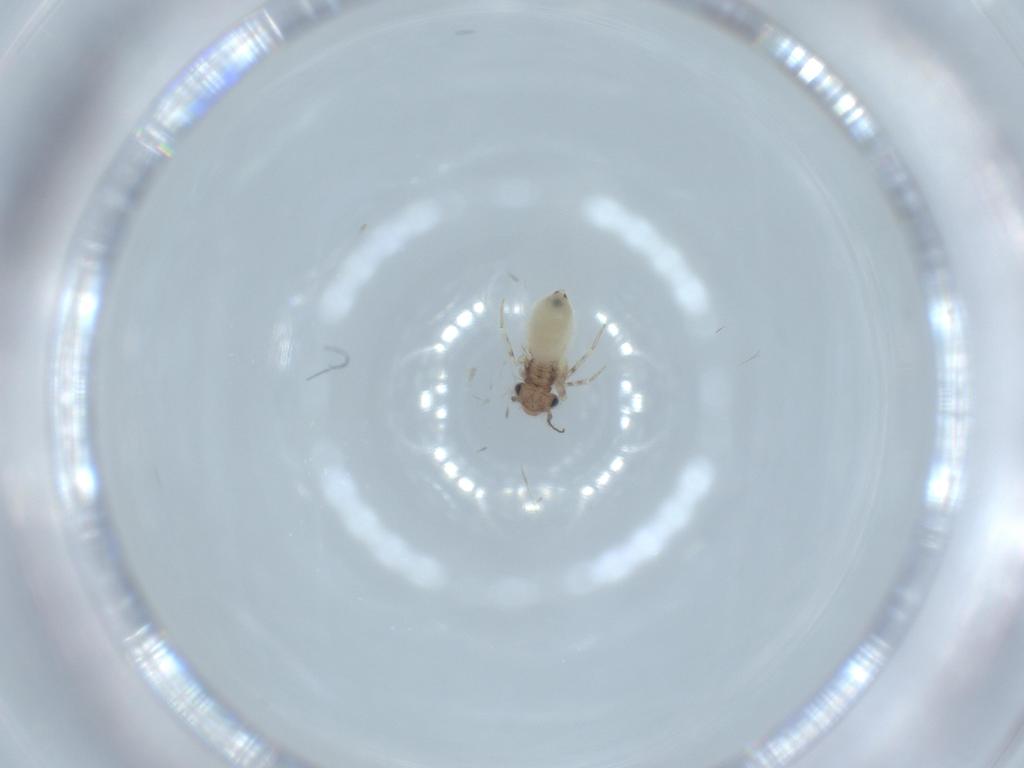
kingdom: Animalia
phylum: Arthropoda
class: Insecta
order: Psocodea
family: Lepidopsocidae
